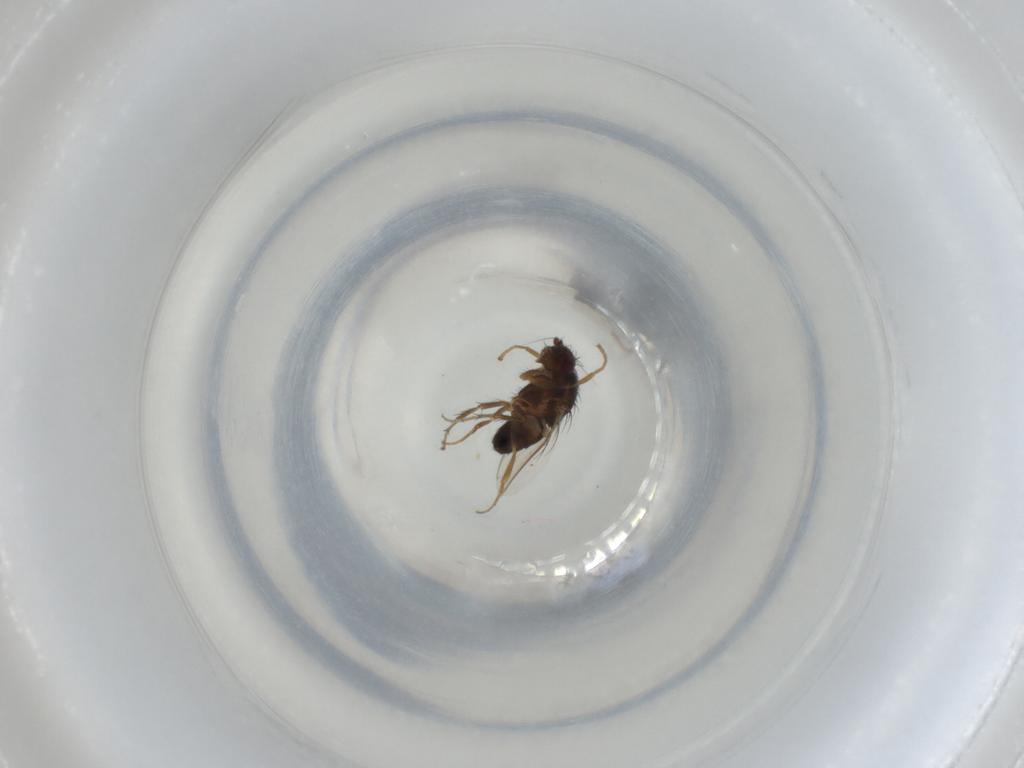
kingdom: Animalia
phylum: Arthropoda
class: Insecta
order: Diptera
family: Sphaeroceridae
